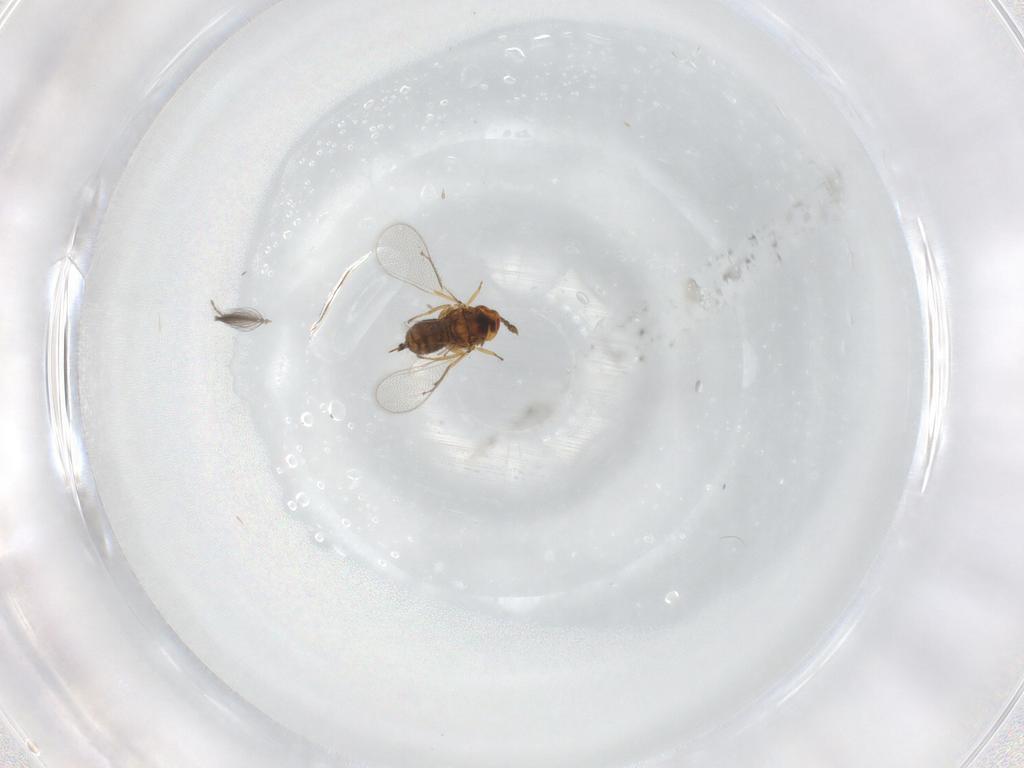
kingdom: Animalia
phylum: Arthropoda
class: Insecta
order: Hymenoptera
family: Eulophidae
